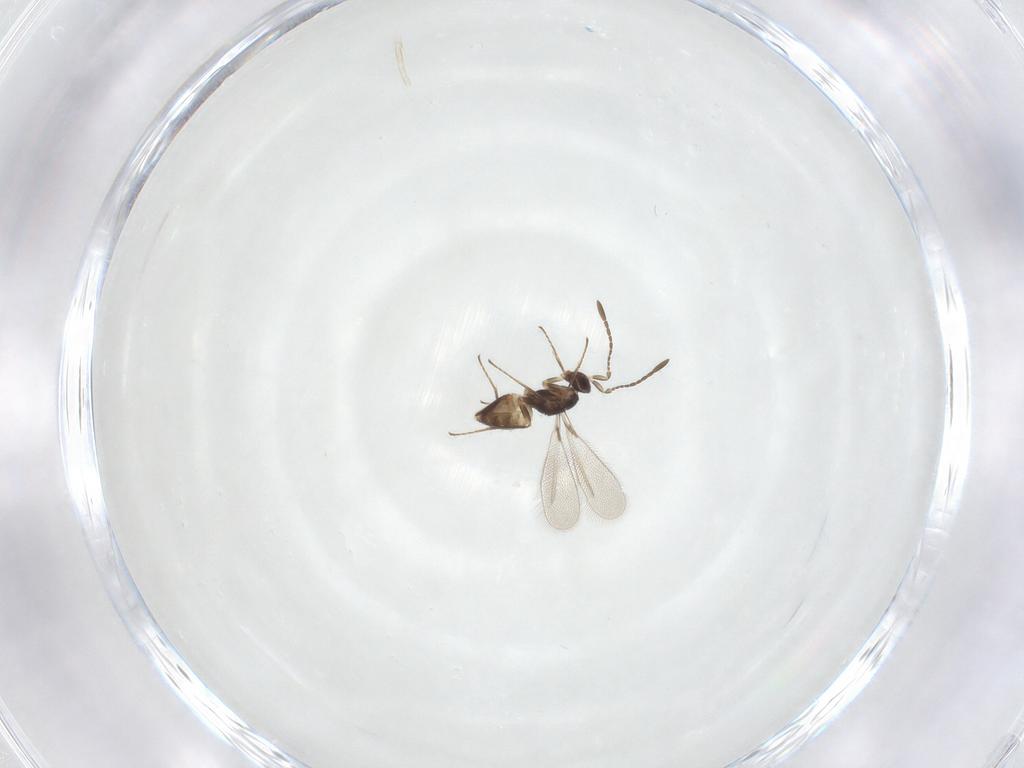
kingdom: Animalia
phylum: Arthropoda
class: Insecta
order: Hymenoptera
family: Mymaridae
